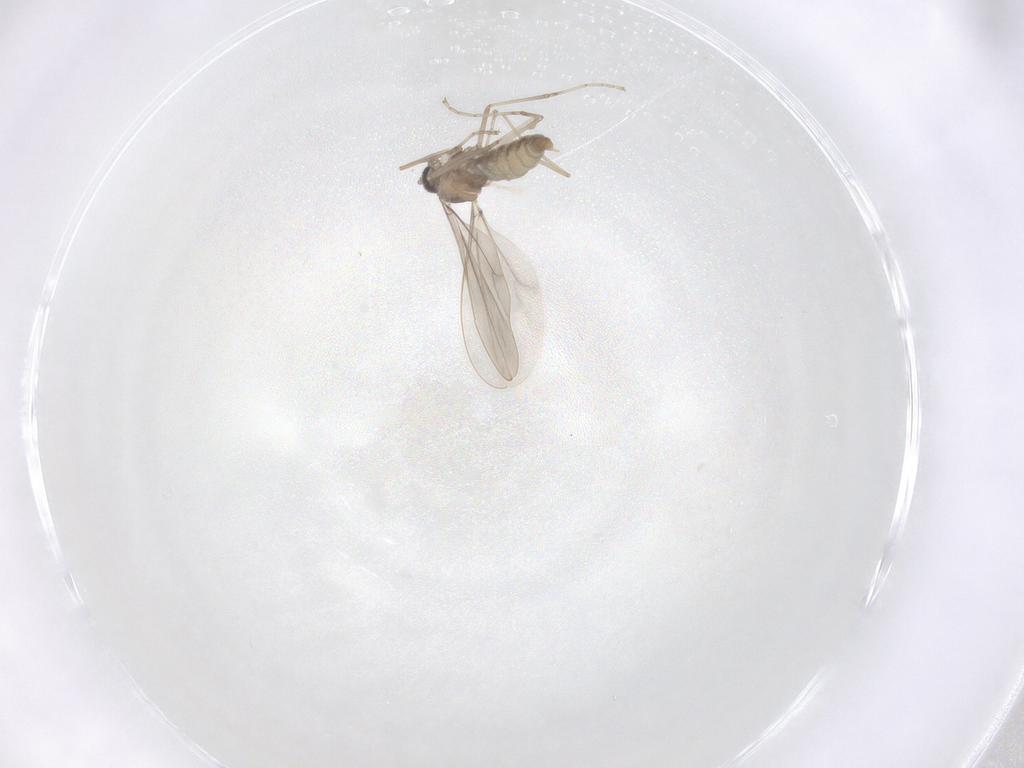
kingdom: Animalia
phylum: Arthropoda
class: Insecta
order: Diptera
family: Cecidomyiidae
